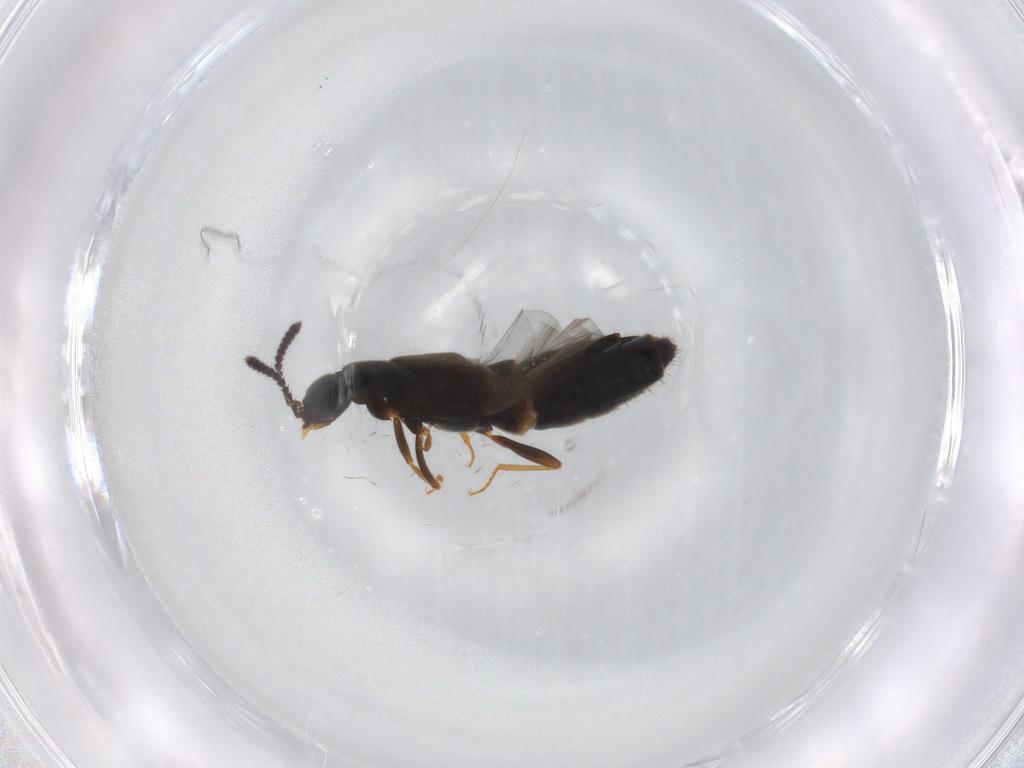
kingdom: Animalia
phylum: Arthropoda
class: Insecta
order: Coleoptera
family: Staphylinidae
